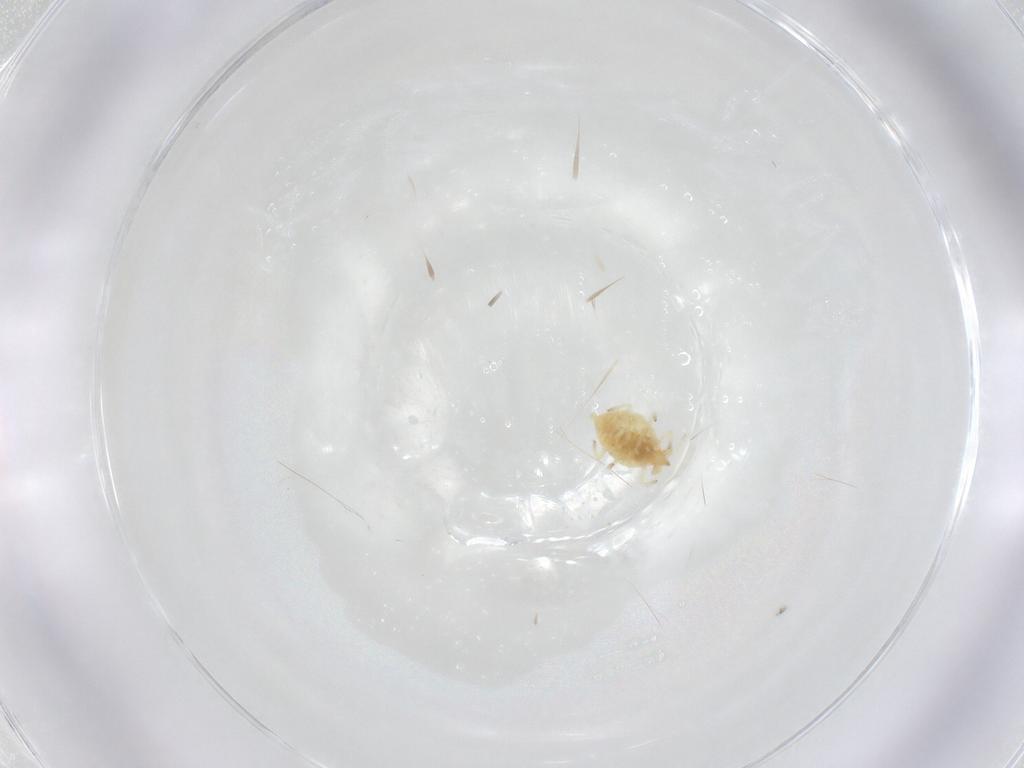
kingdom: Animalia
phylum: Arthropoda
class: Insecta
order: Neuroptera
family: Coniopterygidae
